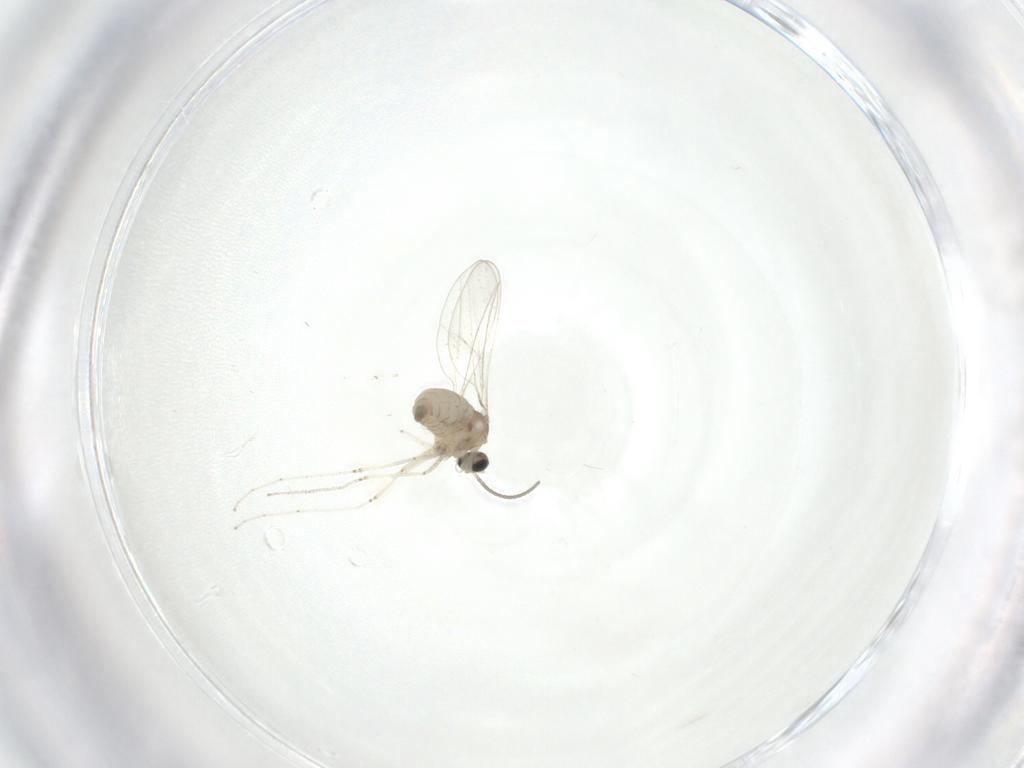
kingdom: Animalia
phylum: Arthropoda
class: Insecta
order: Diptera
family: Cecidomyiidae
